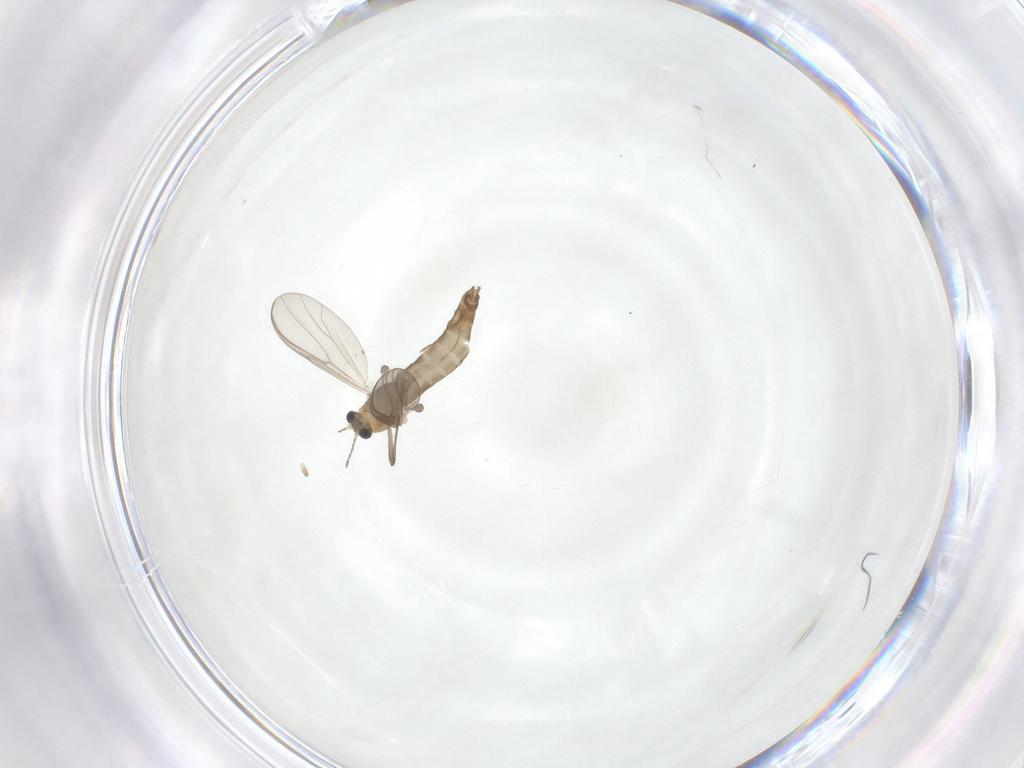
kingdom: Animalia
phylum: Arthropoda
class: Insecta
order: Diptera
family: Chironomidae
